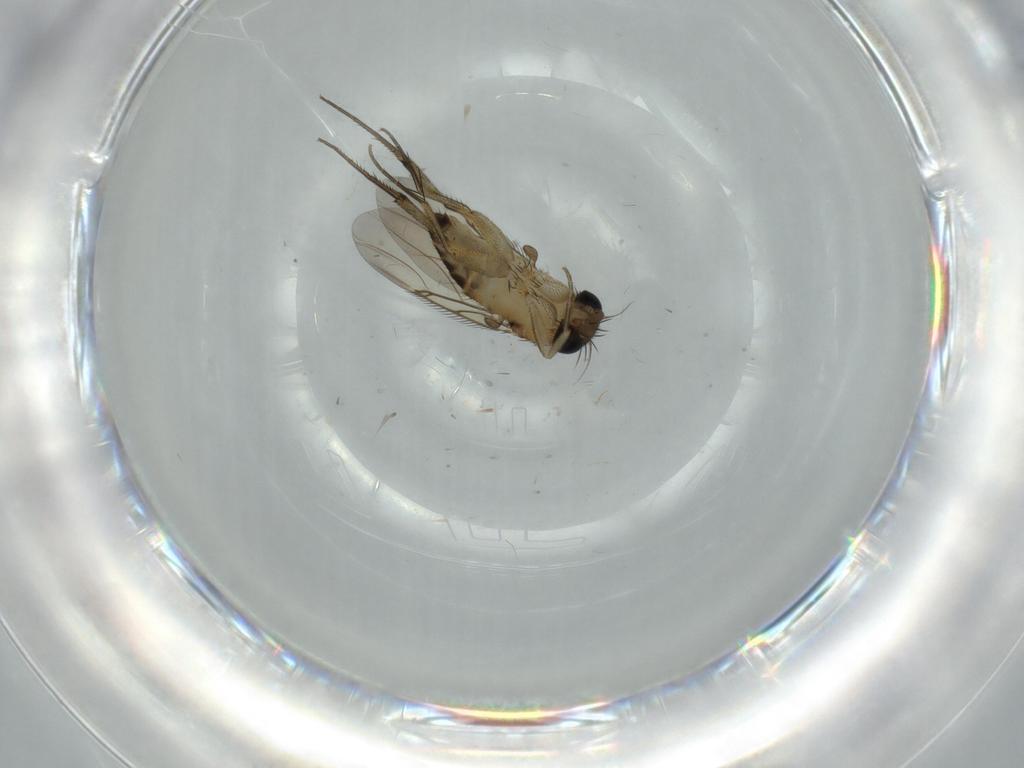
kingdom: Animalia
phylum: Arthropoda
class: Insecta
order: Diptera
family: Phoridae
